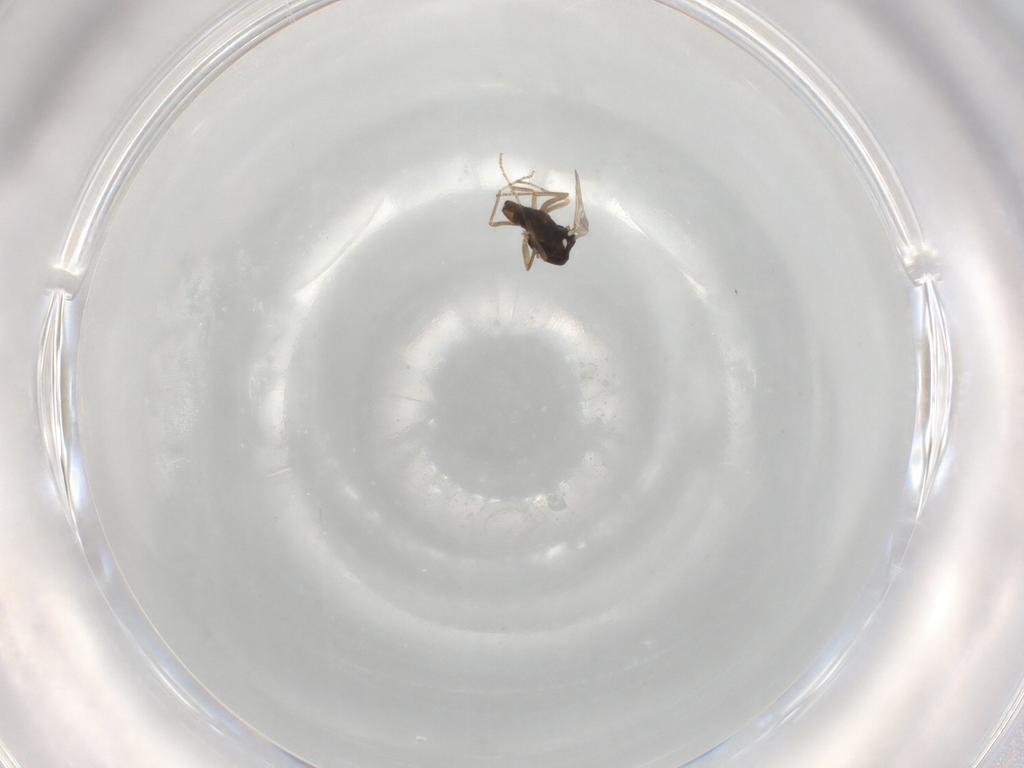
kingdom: Animalia
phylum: Arthropoda
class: Insecta
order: Diptera
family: Ceratopogonidae
